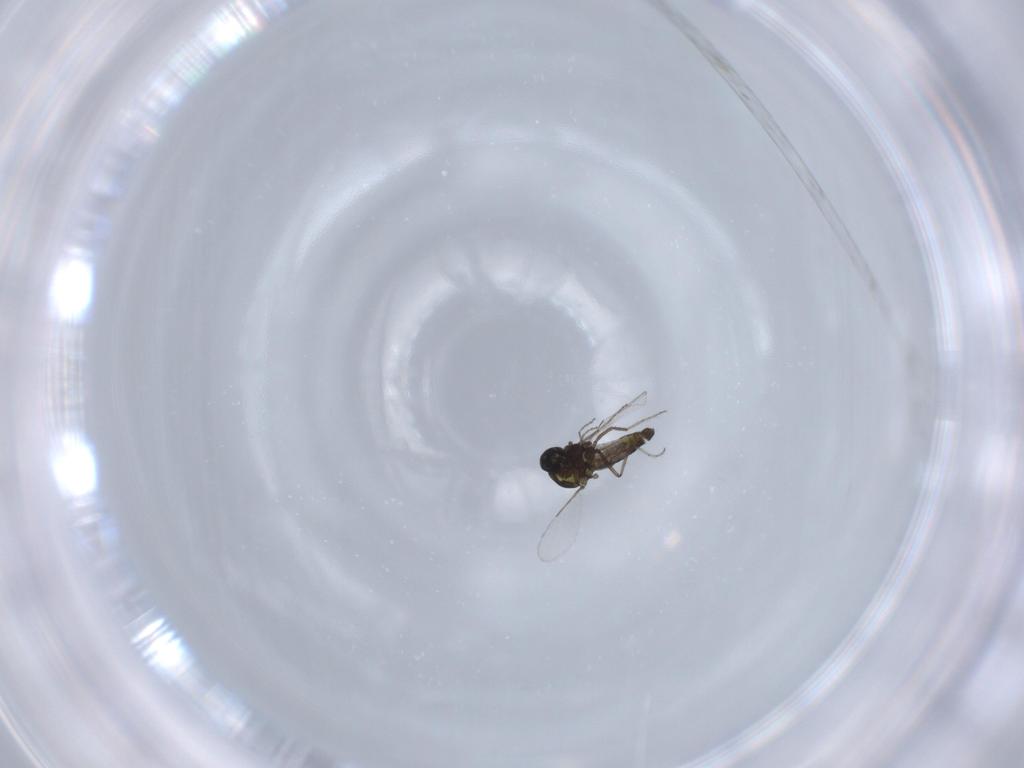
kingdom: Animalia
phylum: Arthropoda
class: Insecta
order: Diptera
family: Ceratopogonidae
